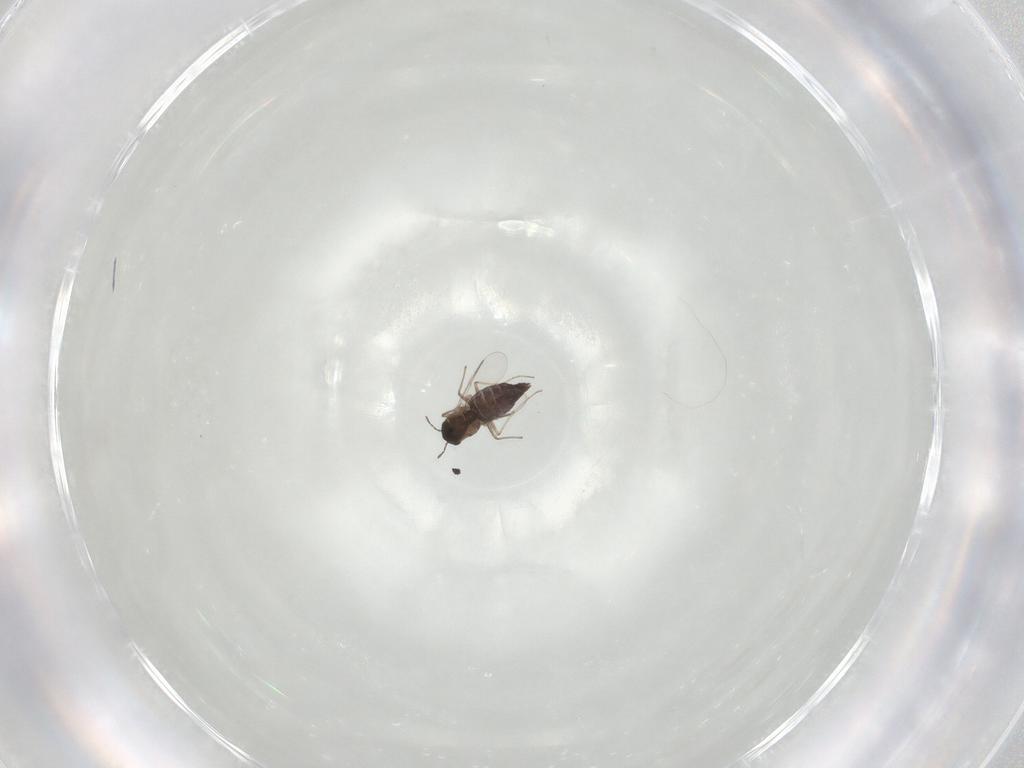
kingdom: Animalia
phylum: Arthropoda
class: Insecta
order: Diptera
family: Chironomidae
